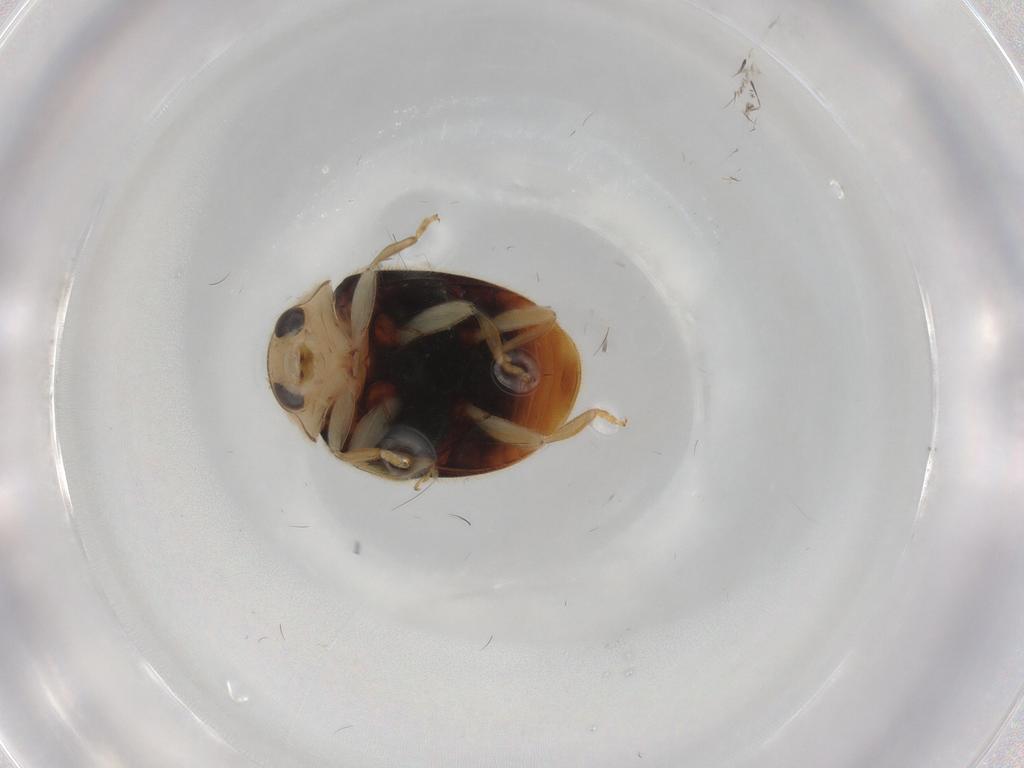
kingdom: Animalia
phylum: Arthropoda
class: Insecta
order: Coleoptera
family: Coccinellidae
